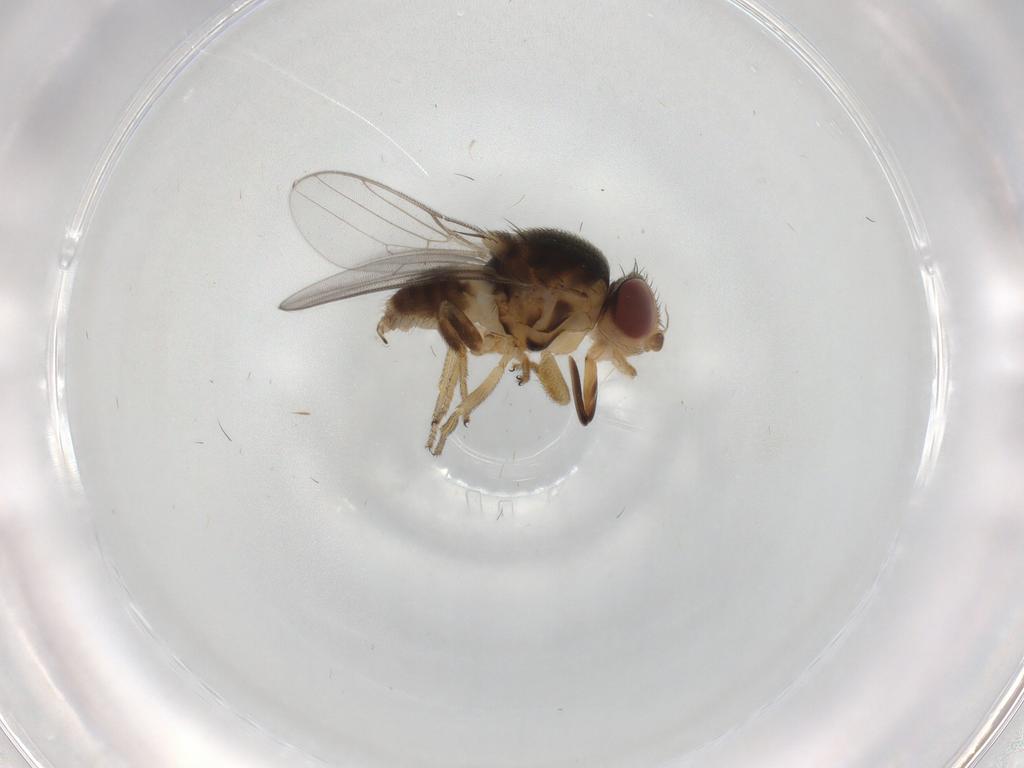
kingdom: Animalia
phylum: Arthropoda
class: Insecta
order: Diptera
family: Chloropidae
